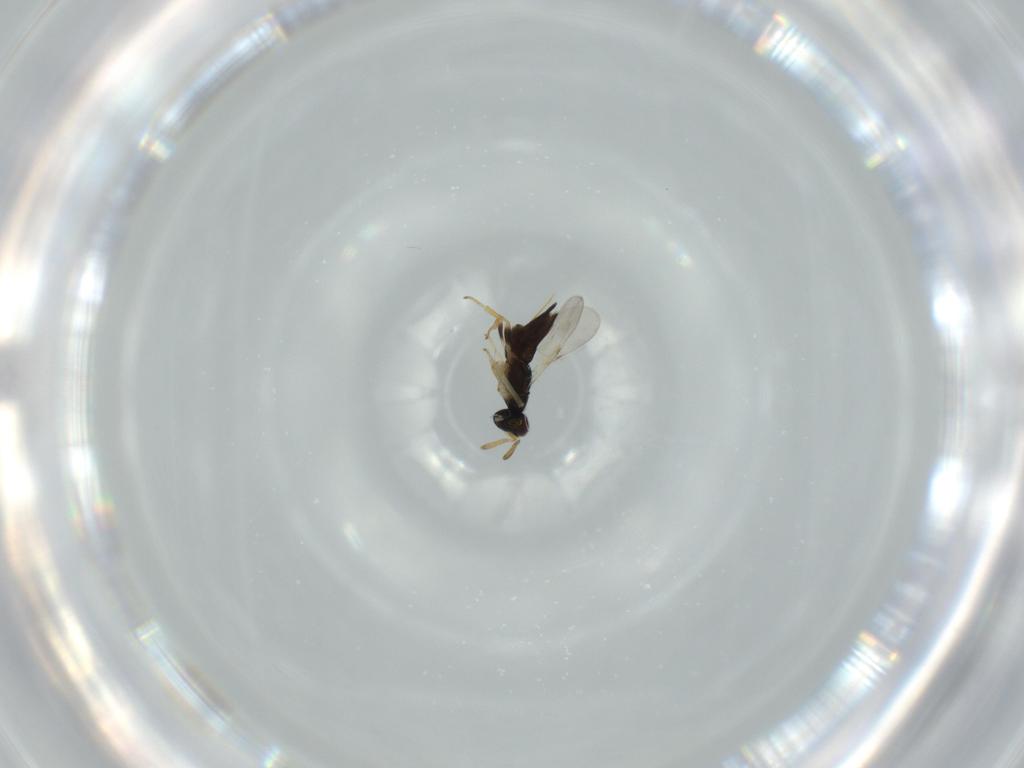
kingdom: Animalia
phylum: Arthropoda
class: Insecta
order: Hymenoptera
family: Encyrtidae
